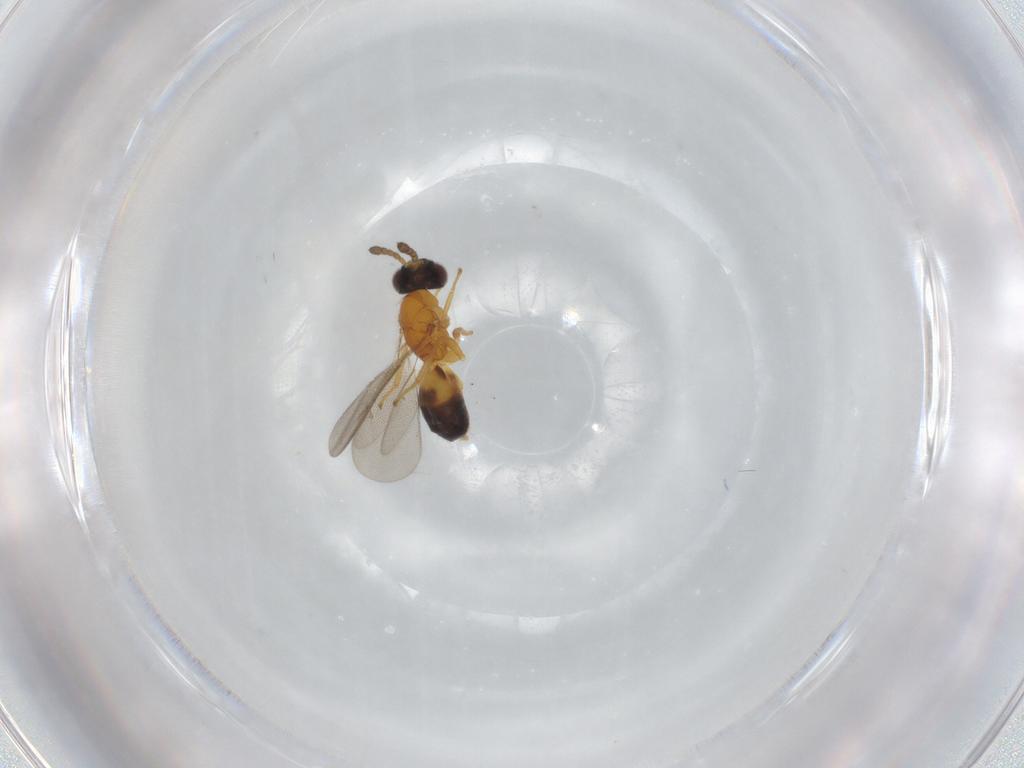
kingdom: Animalia
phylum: Arthropoda
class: Insecta
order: Hymenoptera
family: Eulophidae
